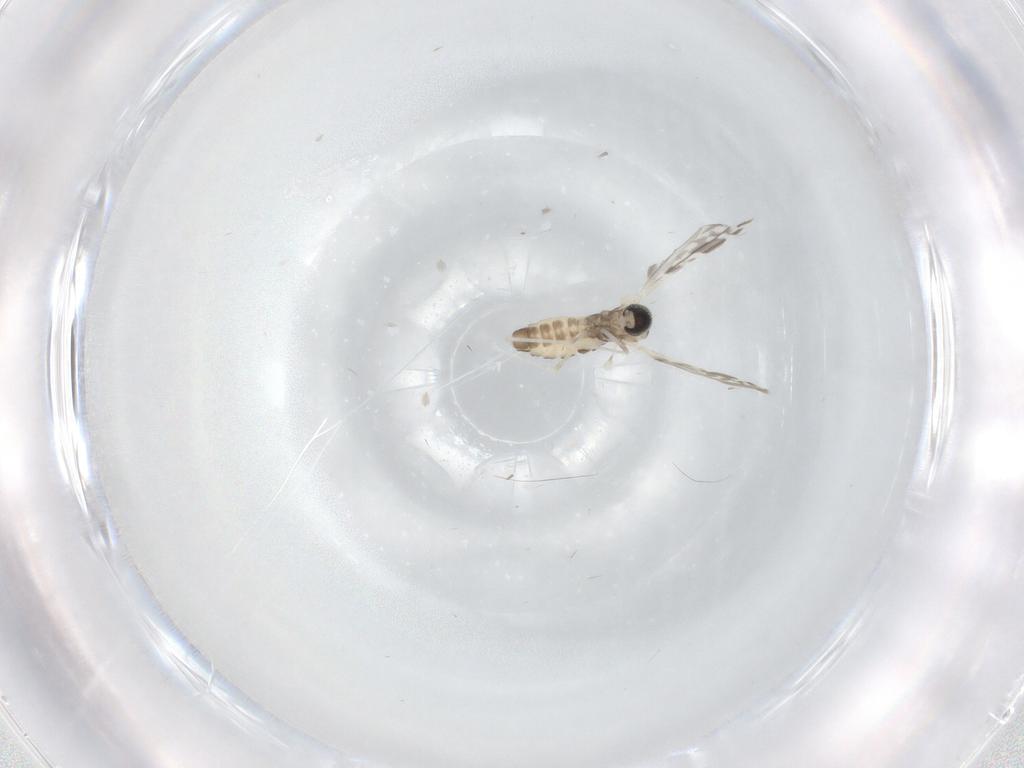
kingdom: Animalia
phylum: Arthropoda
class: Insecta
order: Diptera
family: Cecidomyiidae
